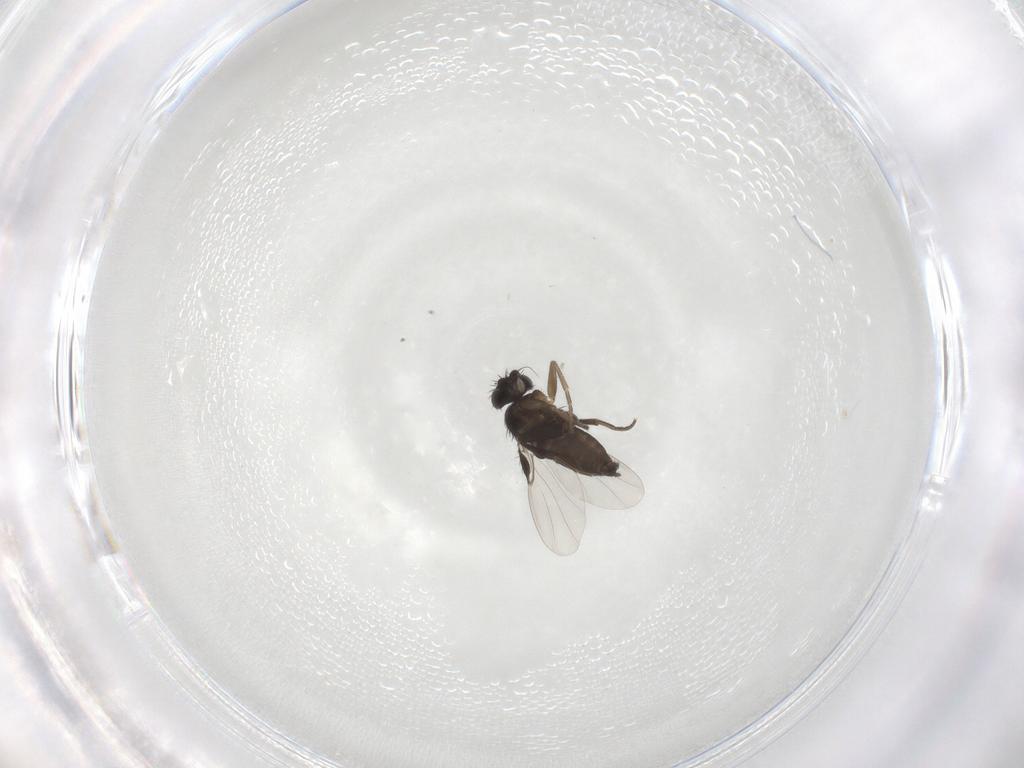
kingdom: Animalia
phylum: Arthropoda
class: Insecta
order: Diptera
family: Phoridae
